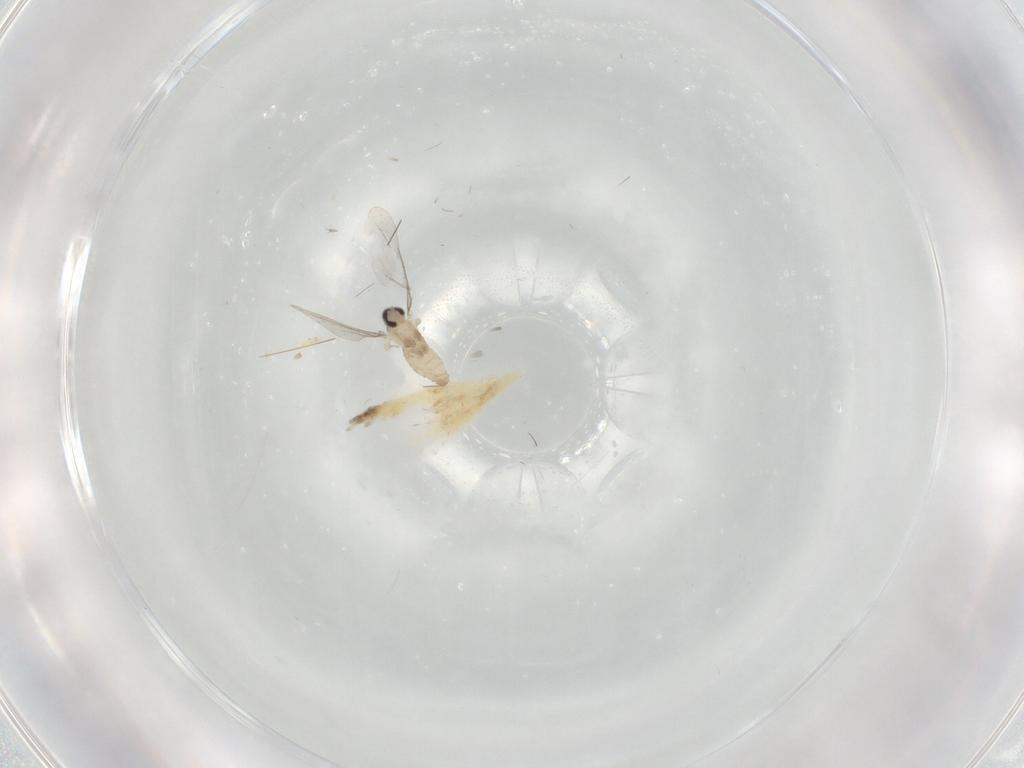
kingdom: Animalia
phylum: Arthropoda
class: Insecta
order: Diptera
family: Cecidomyiidae
